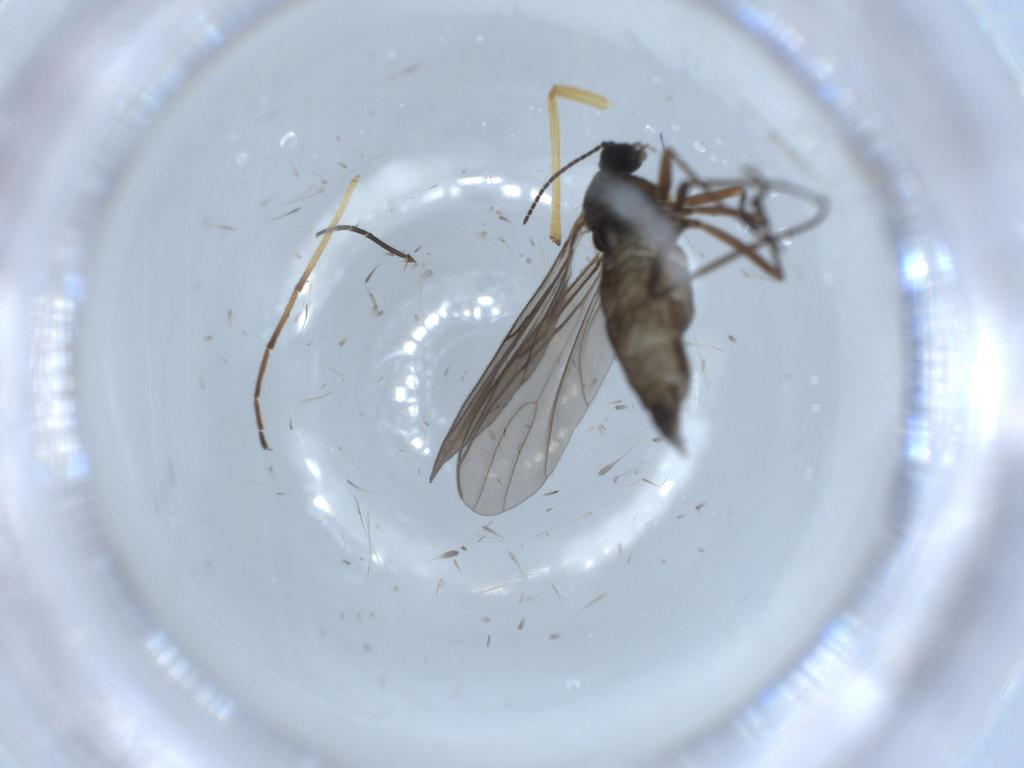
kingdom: Animalia
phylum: Arthropoda
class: Insecta
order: Diptera
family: Sciaridae
